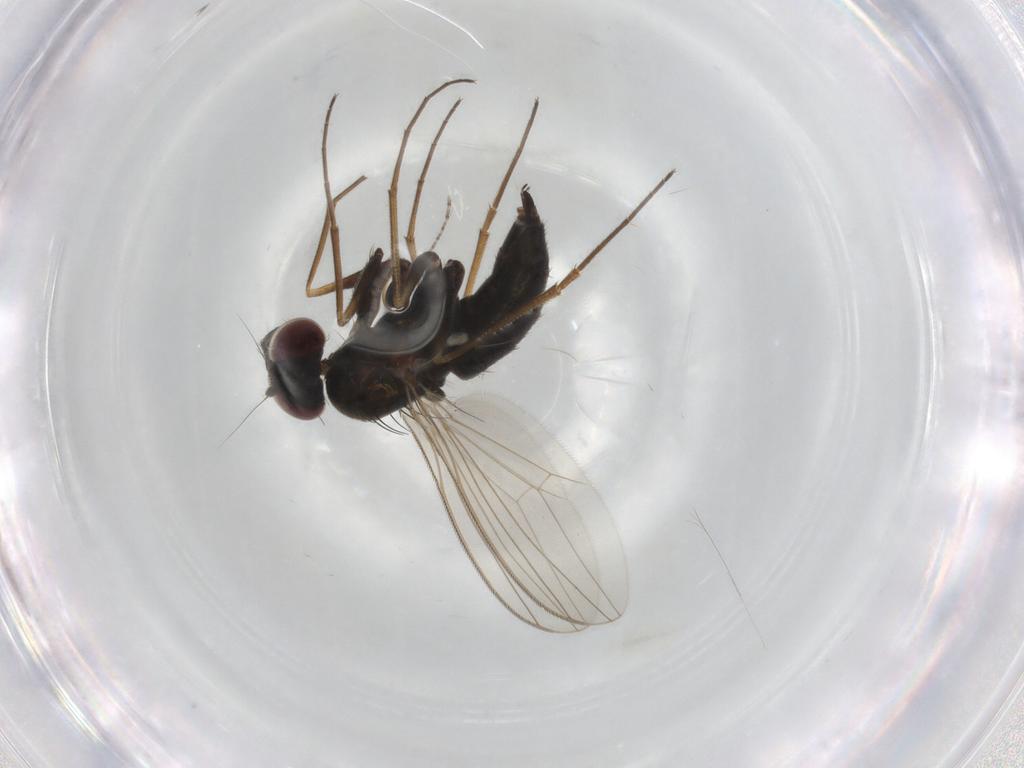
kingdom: Animalia
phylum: Arthropoda
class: Insecta
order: Diptera
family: Dolichopodidae
